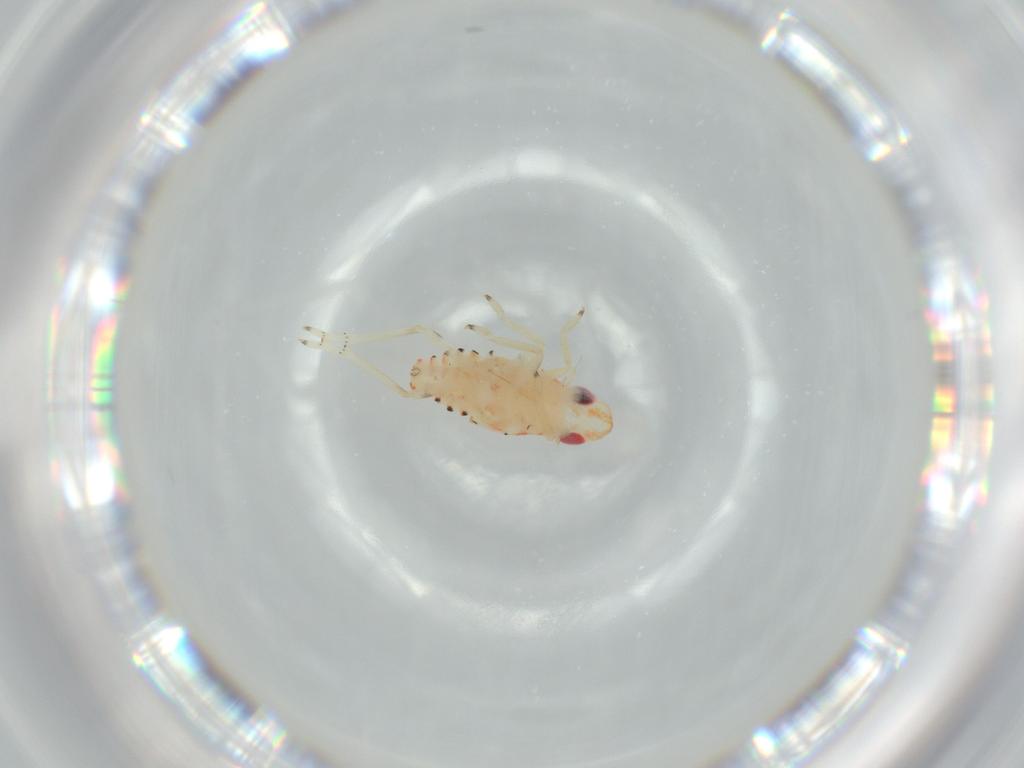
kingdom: Animalia
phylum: Arthropoda
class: Insecta
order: Hemiptera
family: Tropiduchidae
